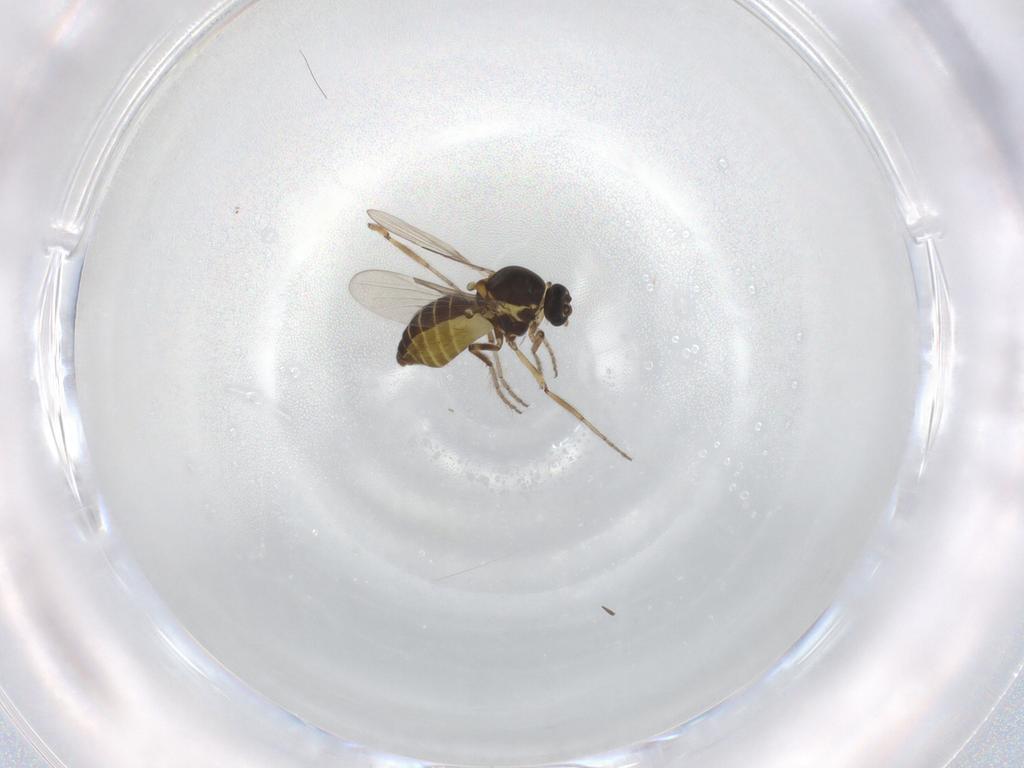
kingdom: Animalia
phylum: Arthropoda
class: Insecta
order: Diptera
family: Ceratopogonidae
